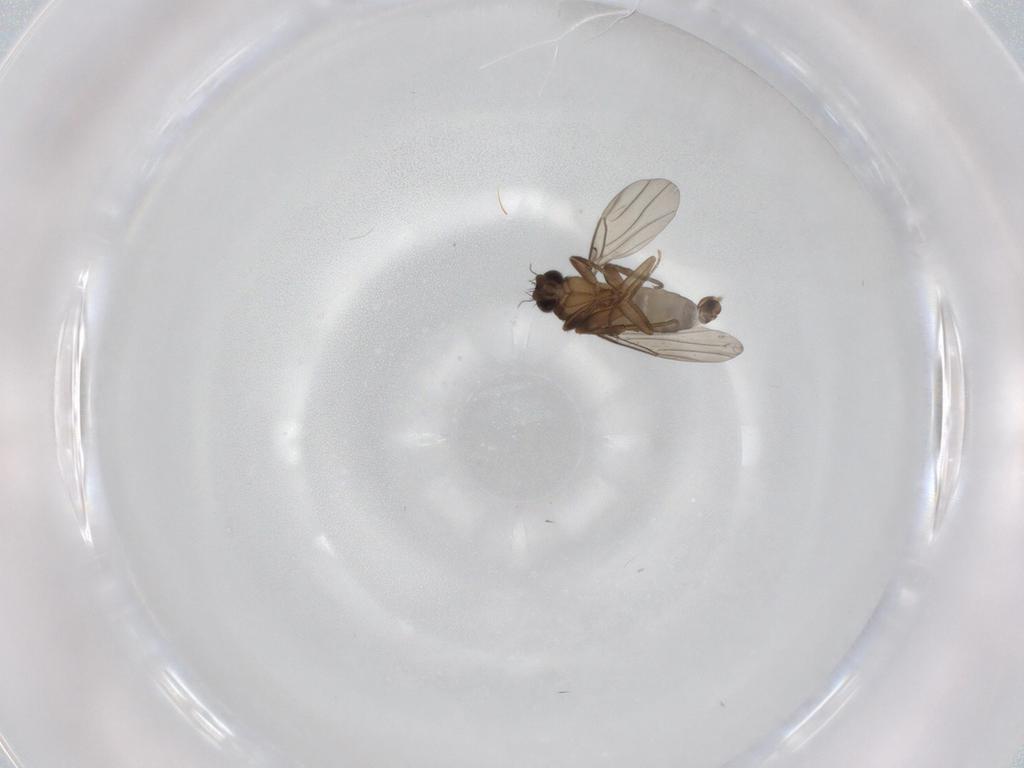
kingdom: Animalia
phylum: Arthropoda
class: Insecta
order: Diptera
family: Phoridae
